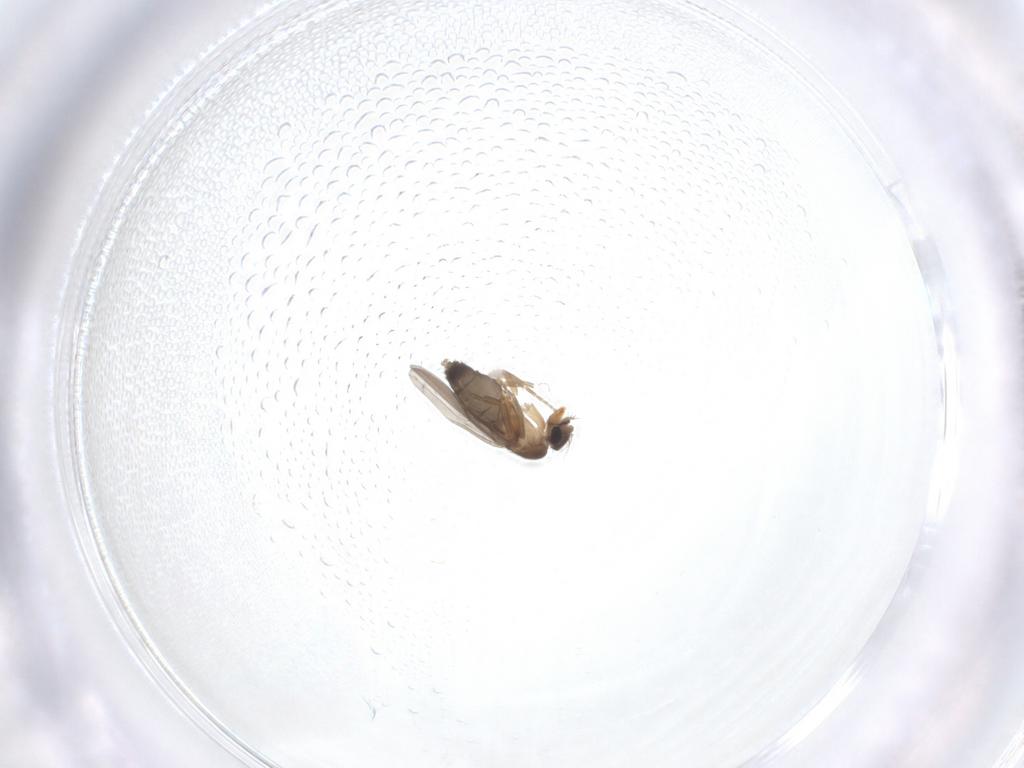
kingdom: Animalia
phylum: Arthropoda
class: Insecta
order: Diptera
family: Phoridae
